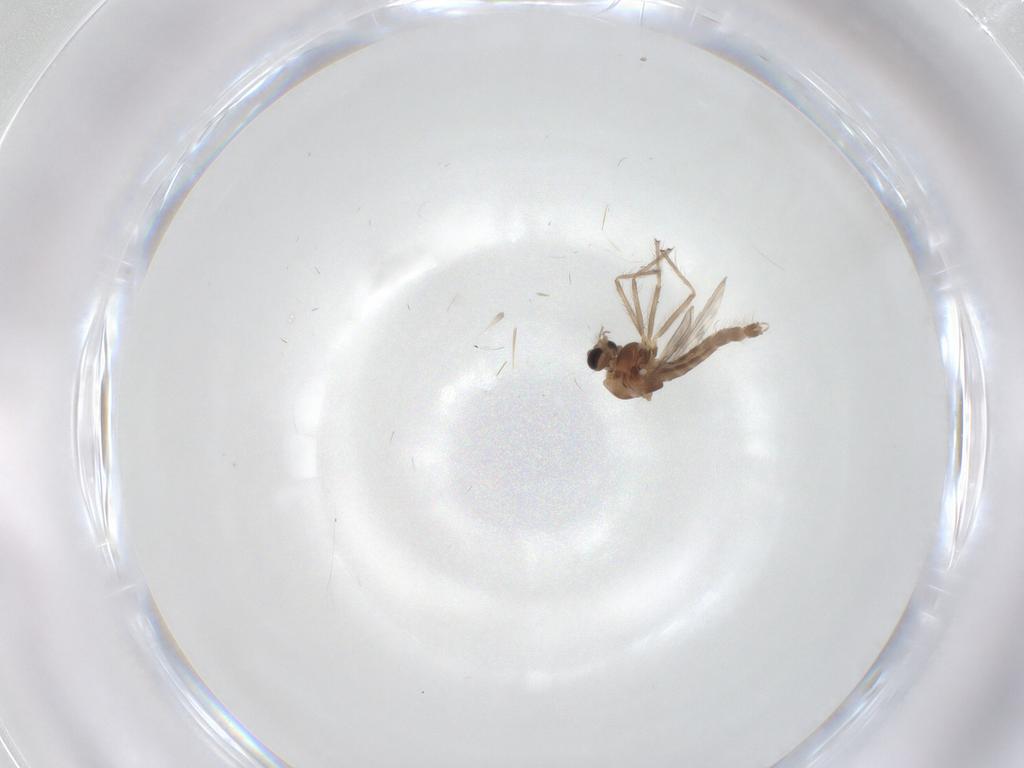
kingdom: Animalia
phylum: Arthropoda
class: Insecta
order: Diptera
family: Chironomidae
